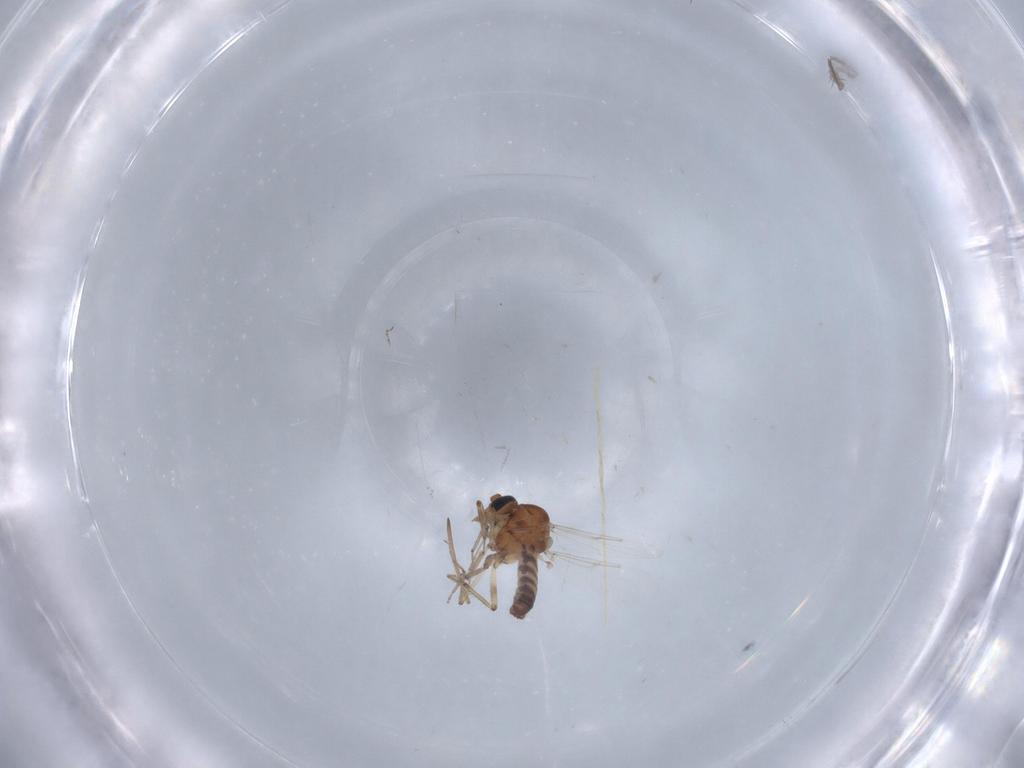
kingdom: Animalia
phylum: Arthropoda
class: Insecta
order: Diptera
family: Ceratopogonidae
